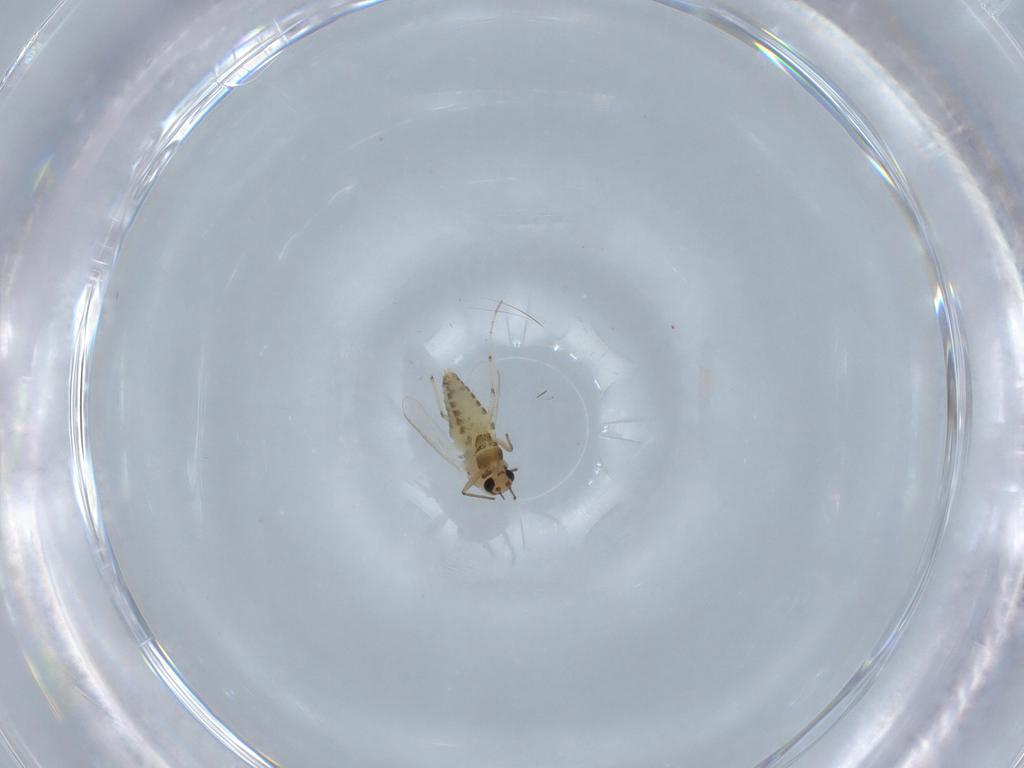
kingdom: Animalia
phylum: Arthropoda
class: Insecta
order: Diptera
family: Chironomidae
